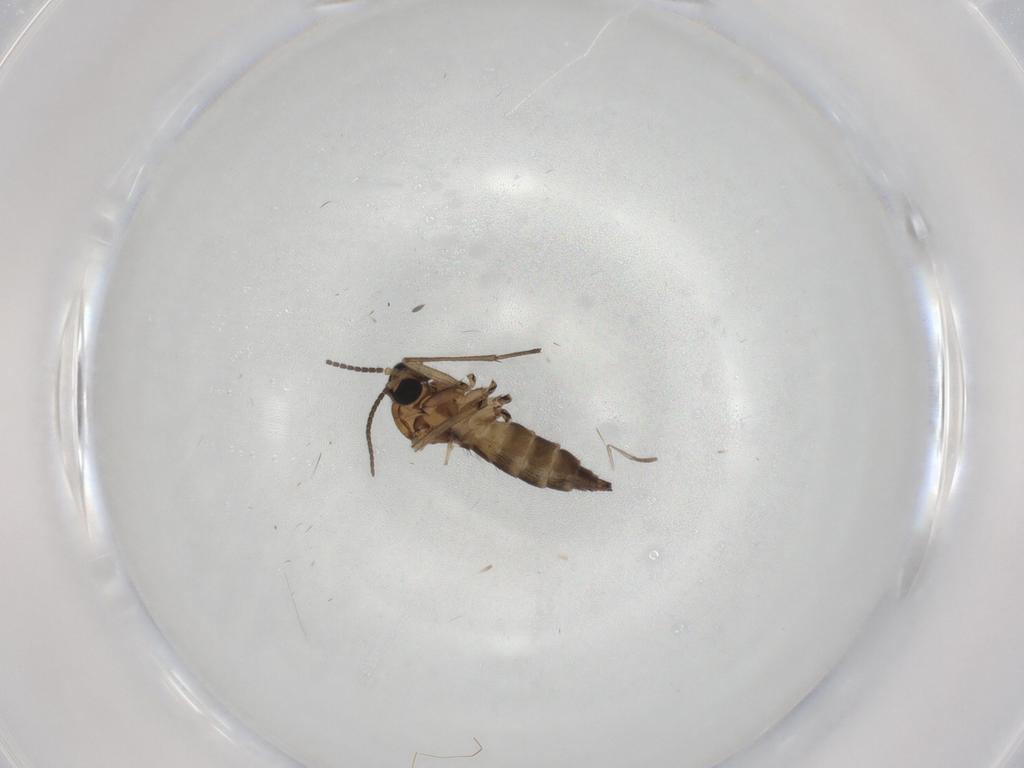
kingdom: Animalia
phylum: Arthropoda
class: Insecta
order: Diptera
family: Sciaridae
